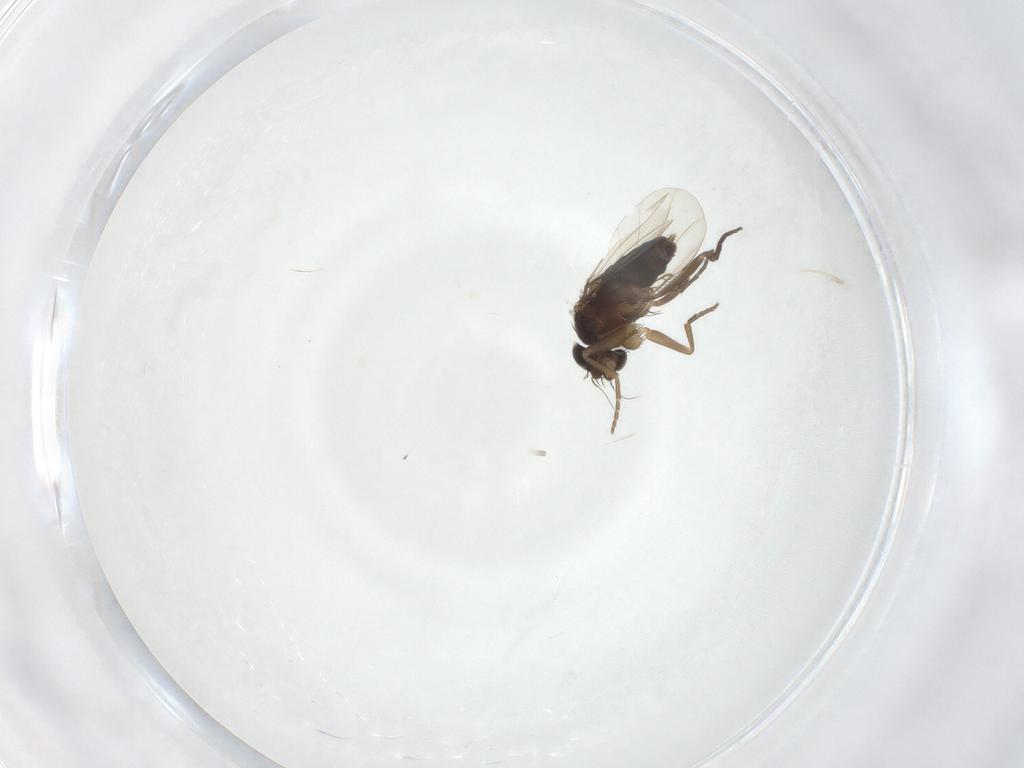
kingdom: Animalia
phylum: Arthropoda
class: Insecta
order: Diptera
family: Phoridae
